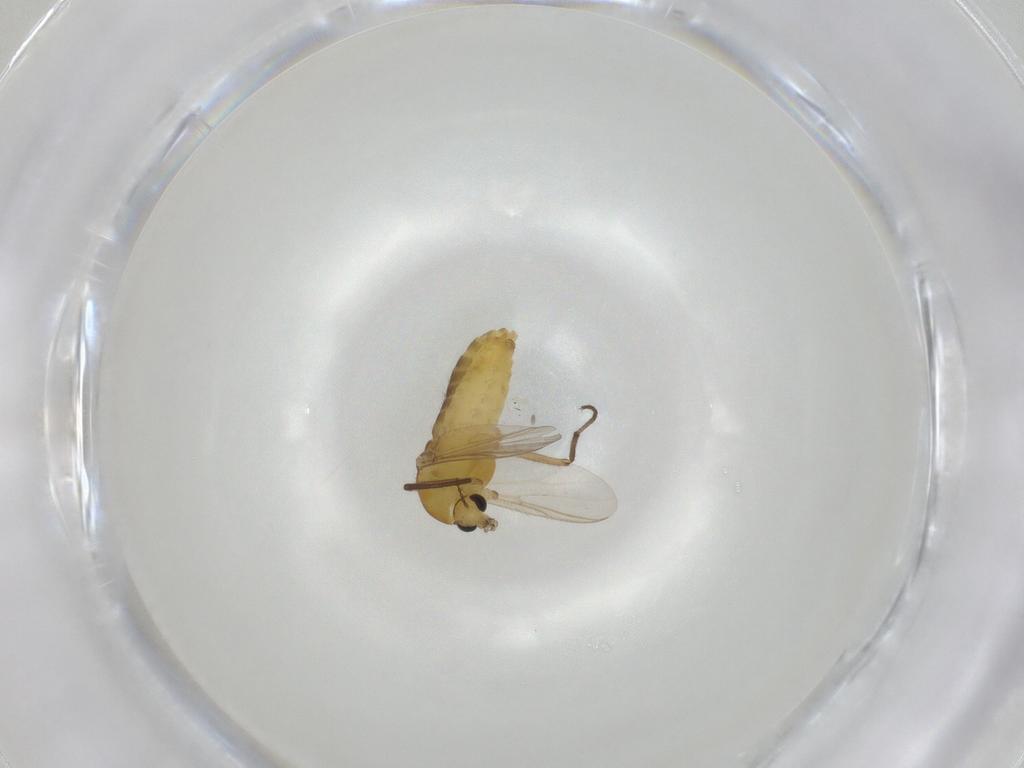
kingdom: Animalia
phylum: Arthropoda
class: Insecta
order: Diptera
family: Chironomidae
